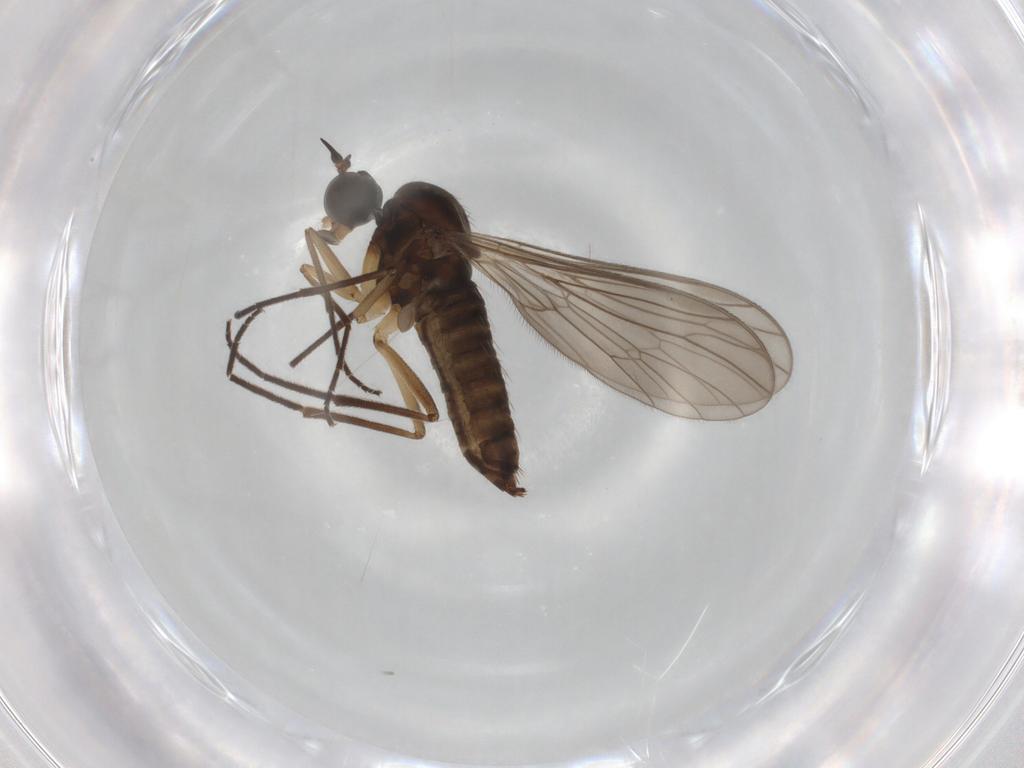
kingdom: Animalia
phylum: Arthropoda
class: Insecta
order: Diptera
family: Empididae
